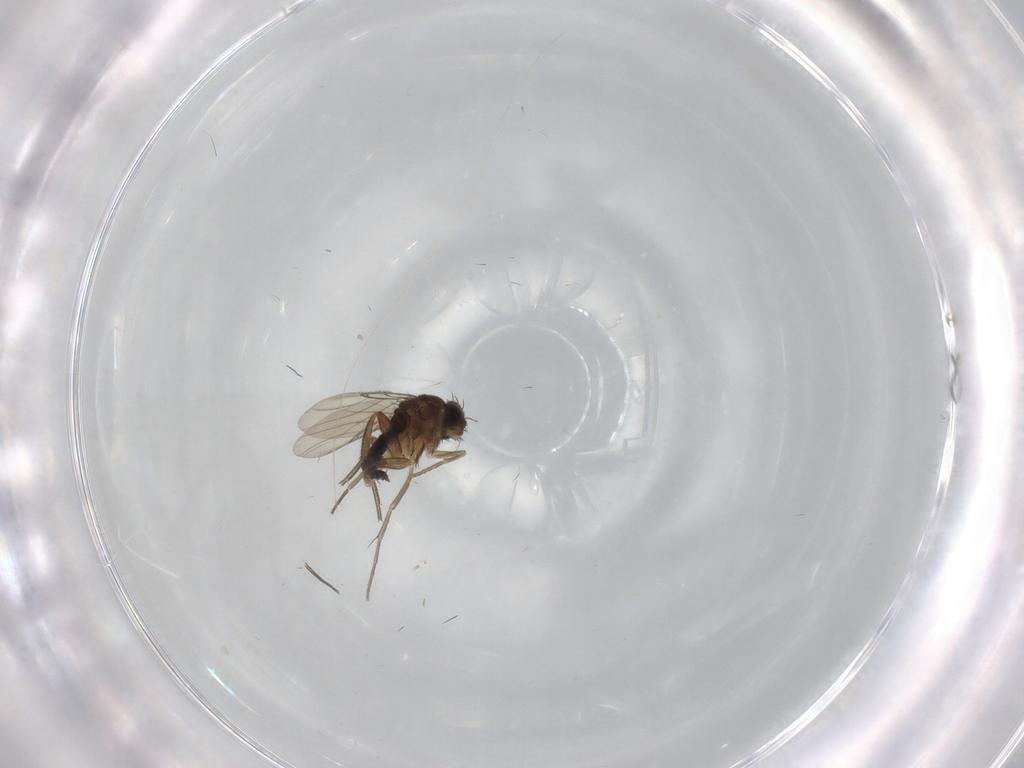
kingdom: Animalia
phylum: Arthropoda
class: Insecta
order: Diptera
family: Phoridae
